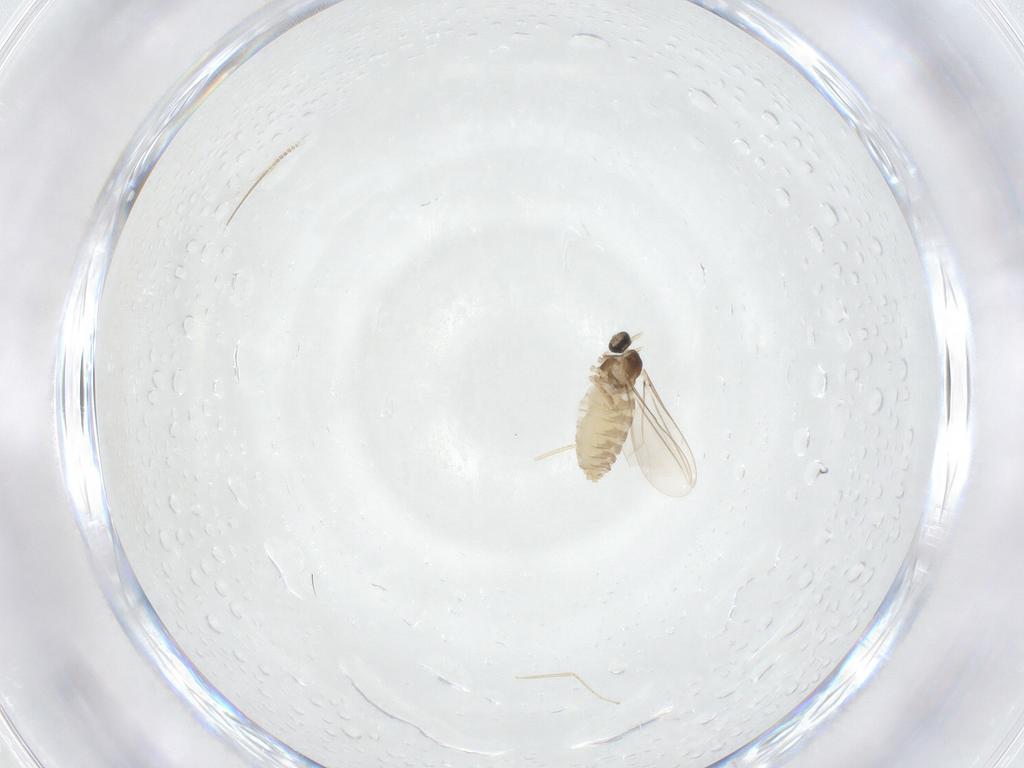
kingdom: Animalia
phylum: Arthropoda
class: Insecta
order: Diptera
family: Cecidomyiidae
